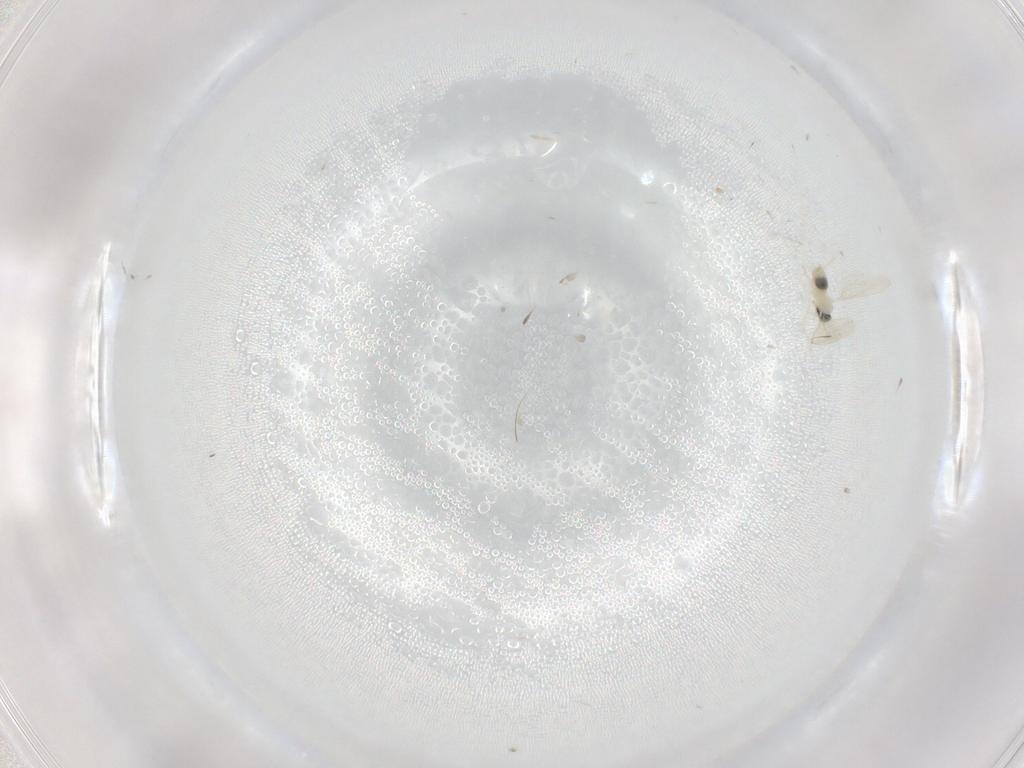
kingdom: Animalia
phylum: Arthropoda
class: Insecta
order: Diptera
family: Cecidomyiidae
